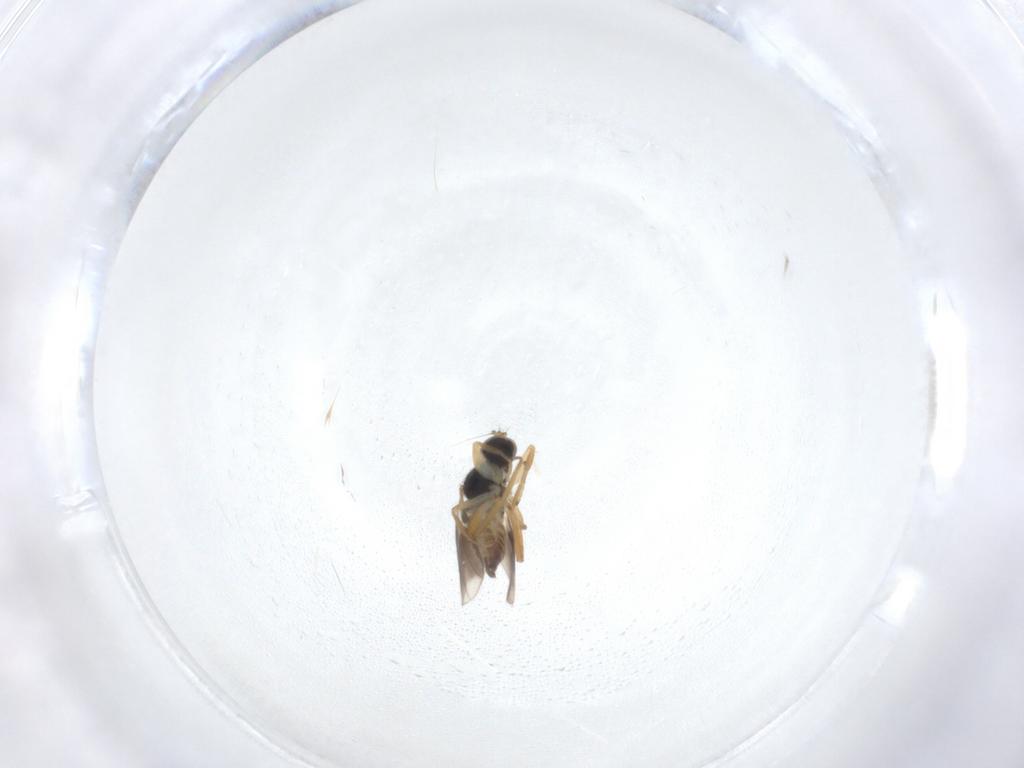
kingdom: Animalia
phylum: Arthropoda
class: Insecta
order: Diptera
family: Hybotidae
